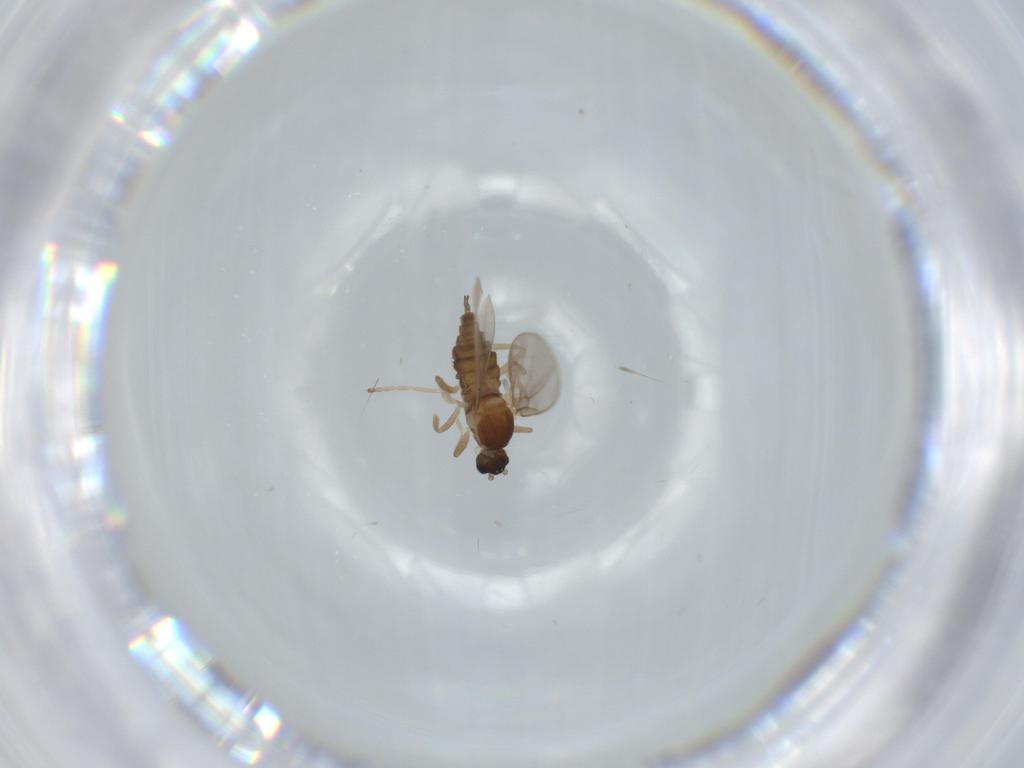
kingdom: Animalia
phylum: Arthropoda
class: Insecta
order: Diptera
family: Cecidomyiidae
